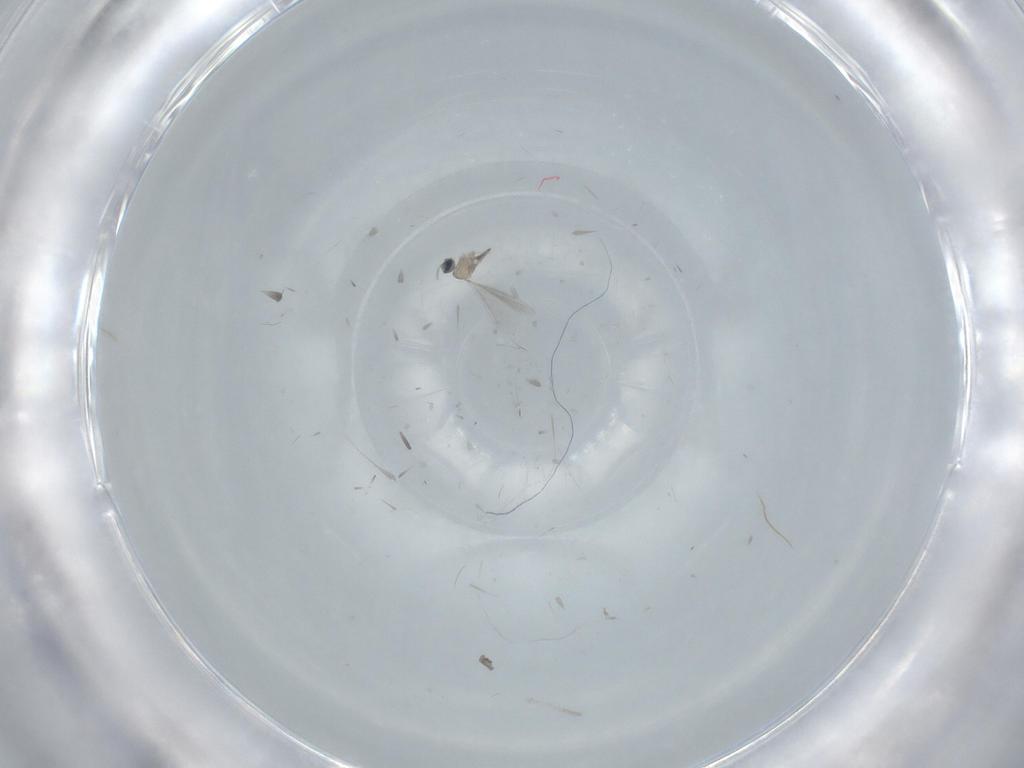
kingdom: Animalia
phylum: Arthropoda
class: Insecta
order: Diptera
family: Cecidomyiidae
